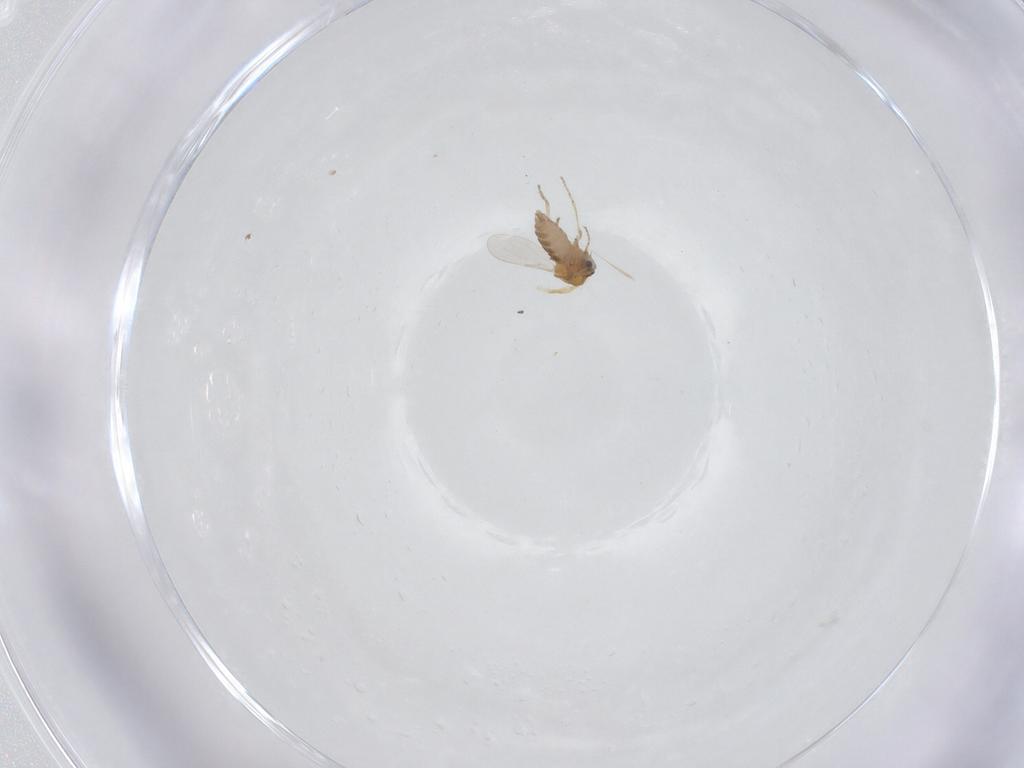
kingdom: Animalia
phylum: Arthropoda
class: Insecta
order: Diptera
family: Ceratopogonidae
